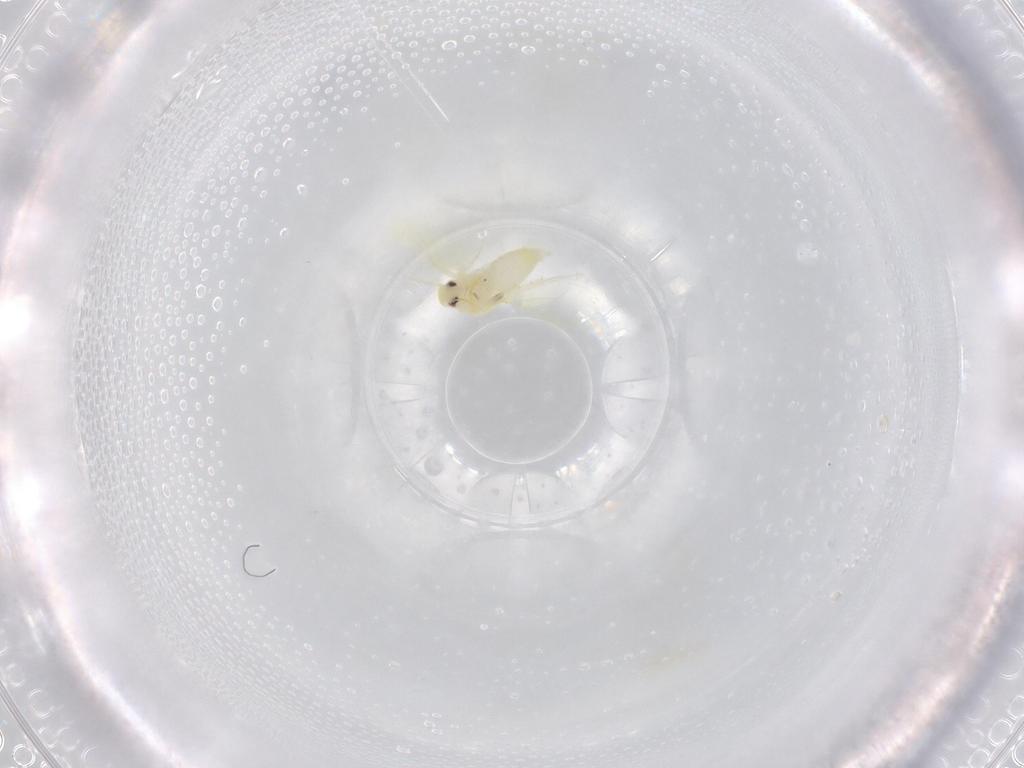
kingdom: Animalia
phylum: Arthropoda
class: Insecta
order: Hemiptera
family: Aleyrodidae
